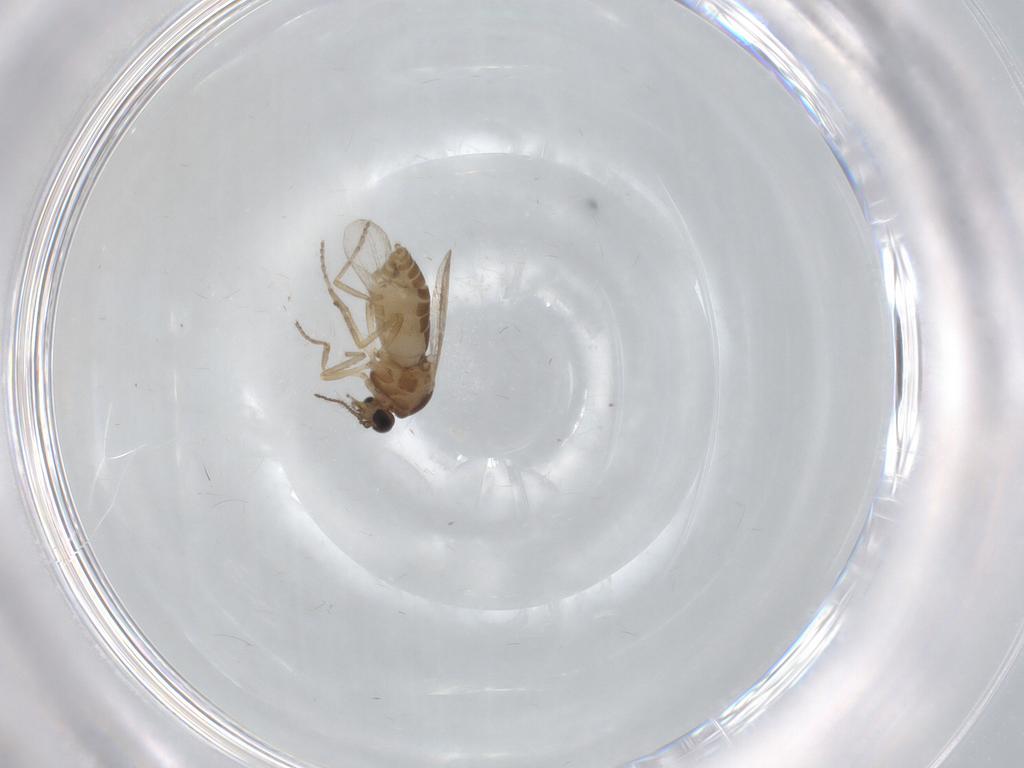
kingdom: Animalia
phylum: Arthropoda
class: Insecta
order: Diptera
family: Ceratopogonidae
